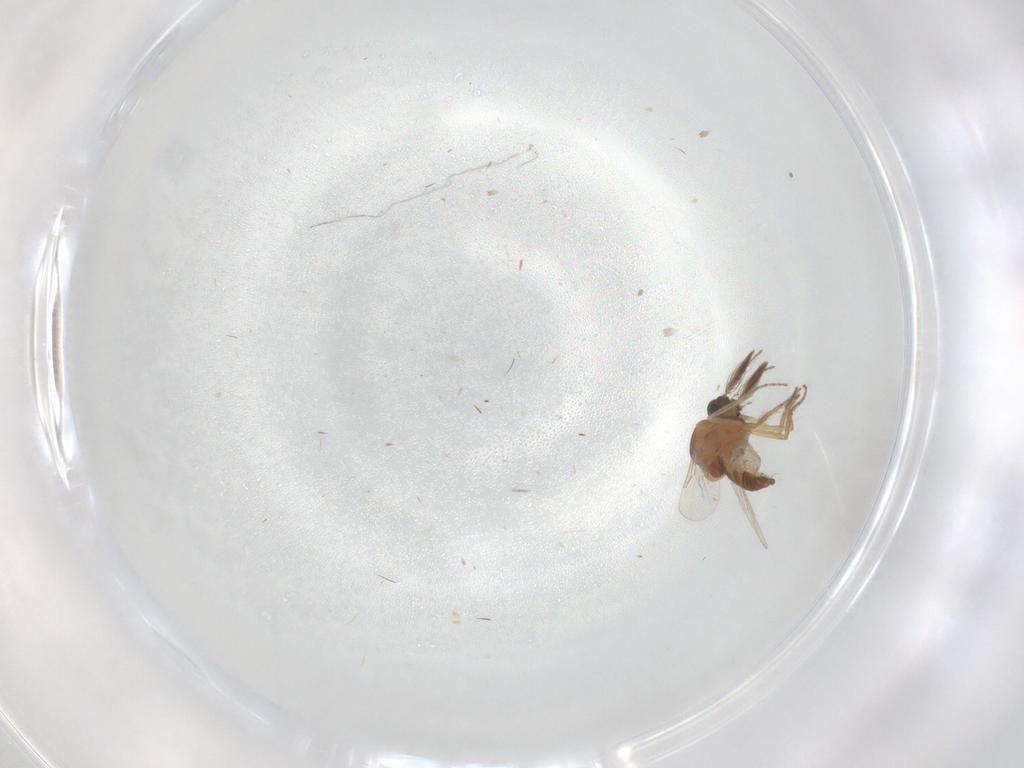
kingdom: Animalia
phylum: Arthropoda
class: Insecta
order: Diptera
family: Ceratopogonidae
